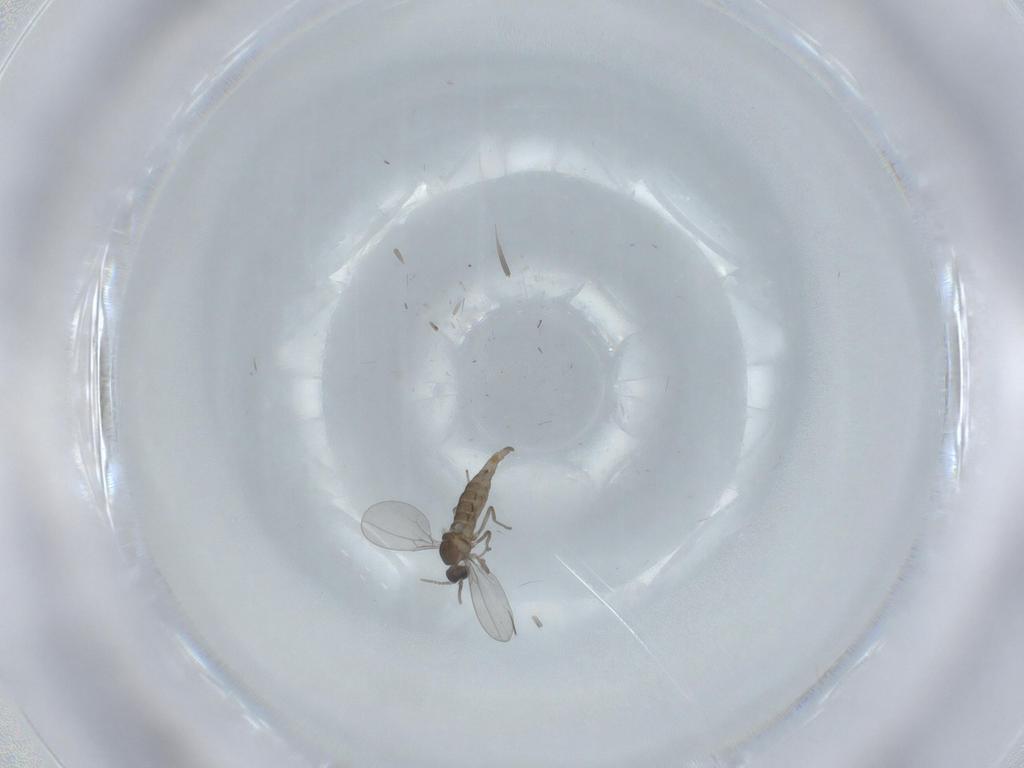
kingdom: Animalia
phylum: Arthropoda
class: Insecta
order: Diptera
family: Cecidomyiidae
